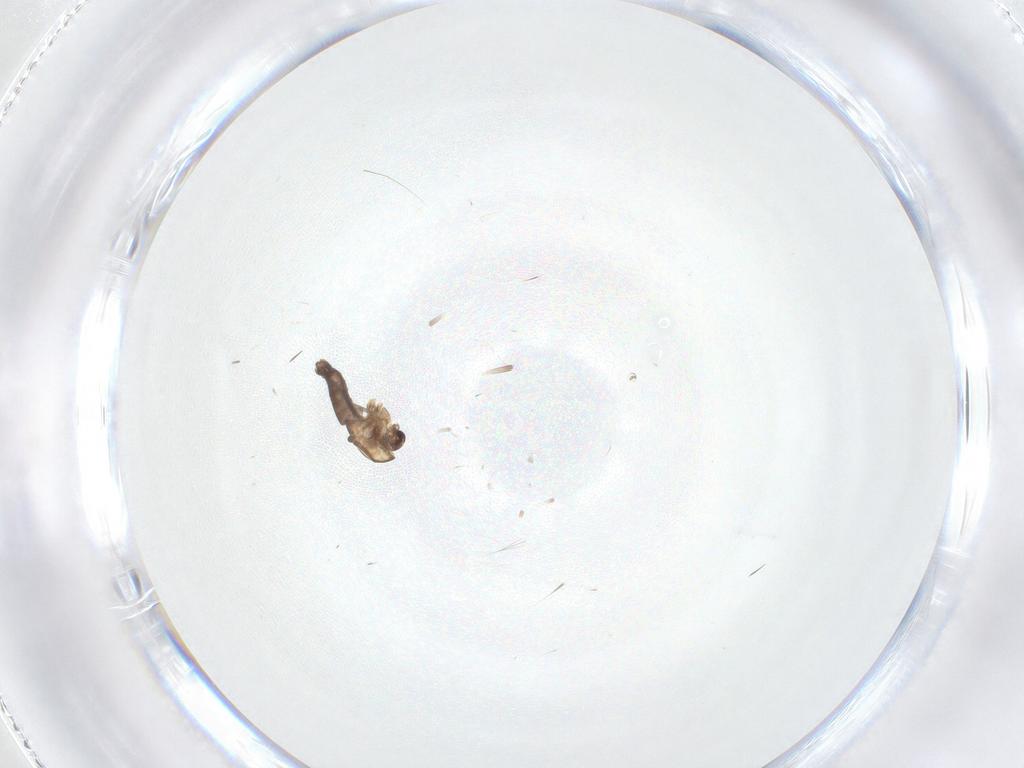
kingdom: Animalia
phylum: Arthropoda
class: Insecta
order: Diptera
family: Chironomidae
